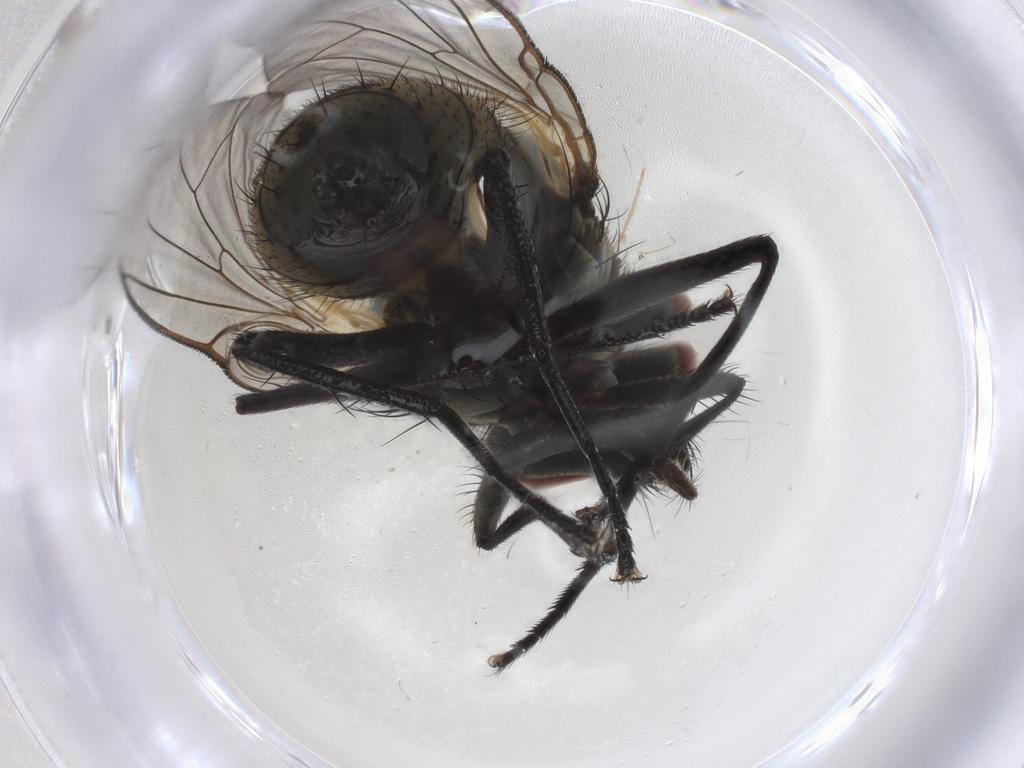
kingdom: Animalia
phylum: Arthropoda
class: Insecta
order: Diptera
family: Muscidae
